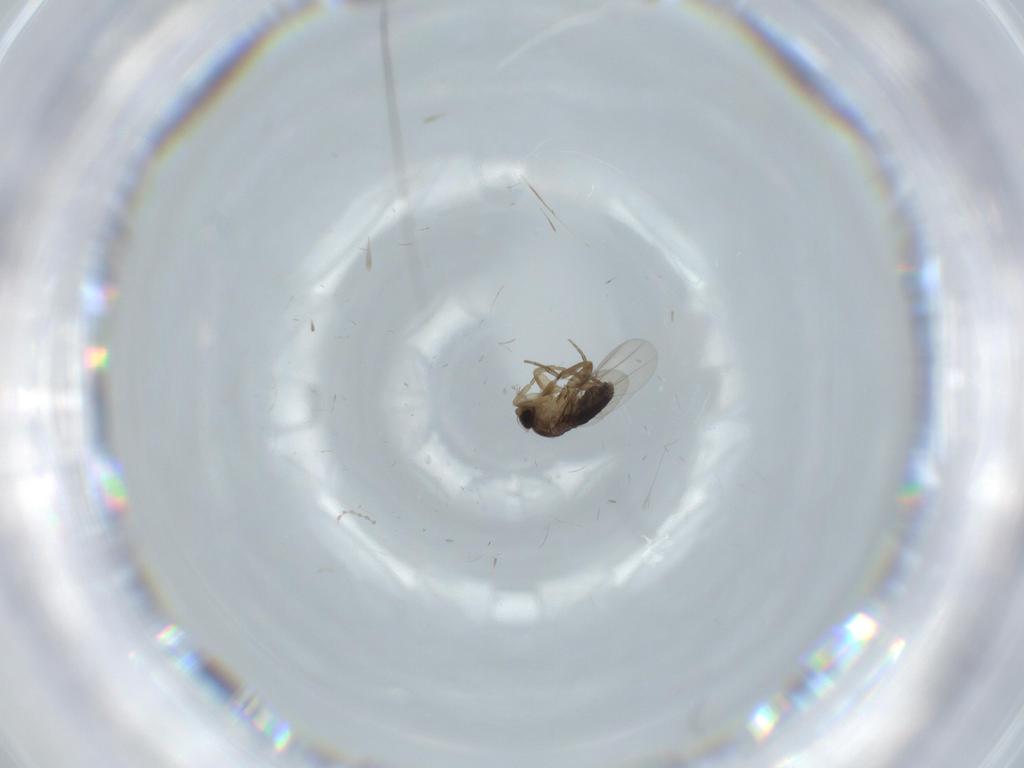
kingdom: Animalia
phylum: Arthropoda
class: Insecta
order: Diptera
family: Phoridae
